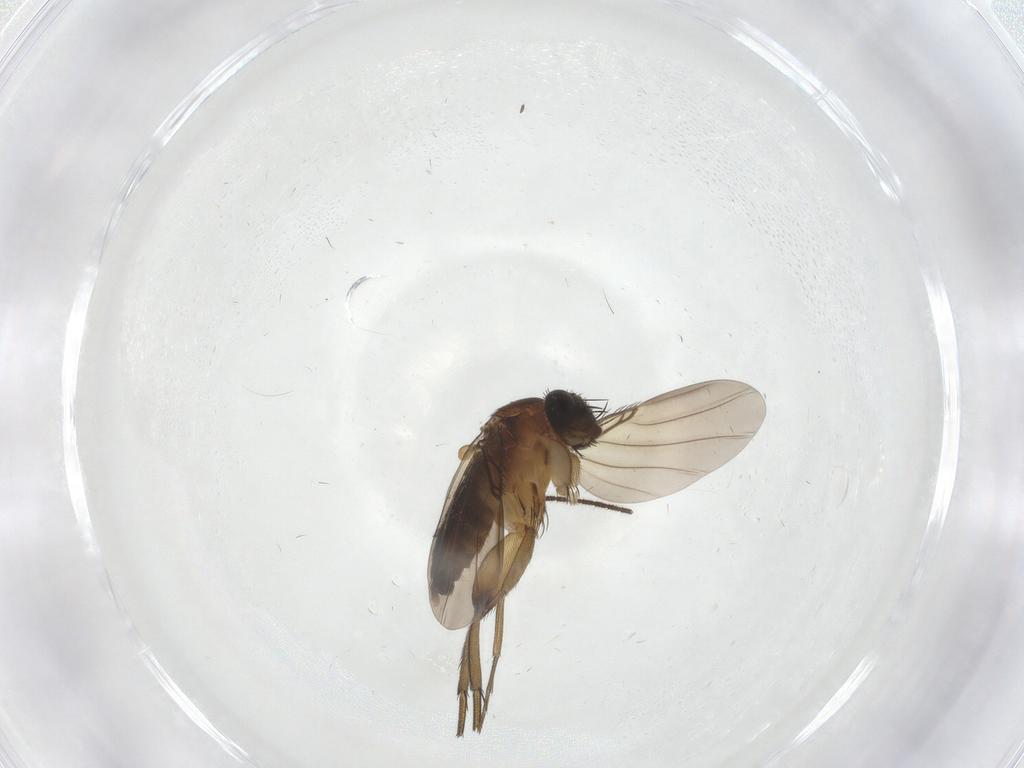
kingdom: Animalia
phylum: Arthropoda
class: Insecta
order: Diptera
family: Phoridae
